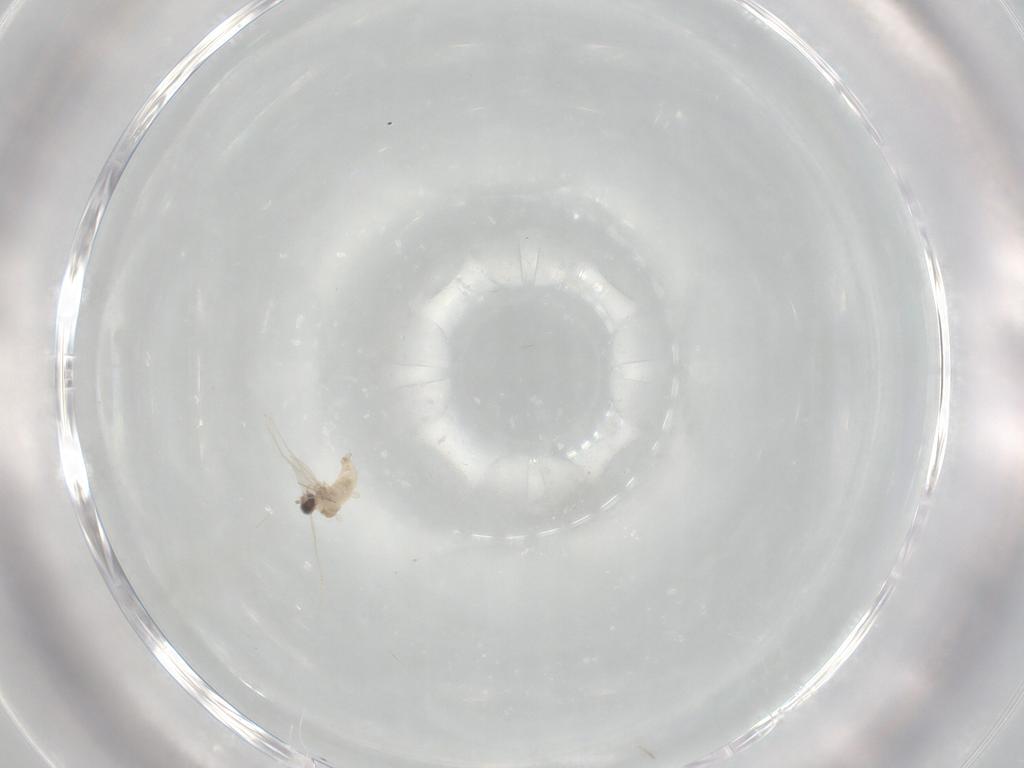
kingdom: Animalia
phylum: Arthropoda
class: Insecta
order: Diptera
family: Cecidomyiidae
